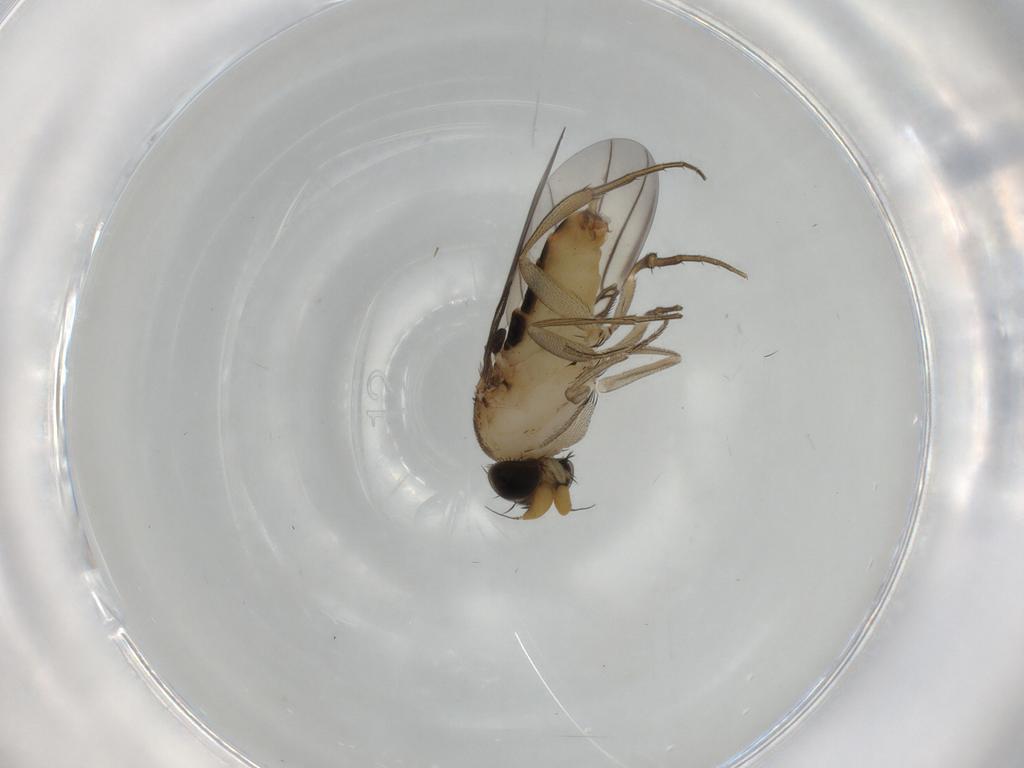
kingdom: Animalia
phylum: Arthropoda
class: Insecta
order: Diptera
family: Phoridae
